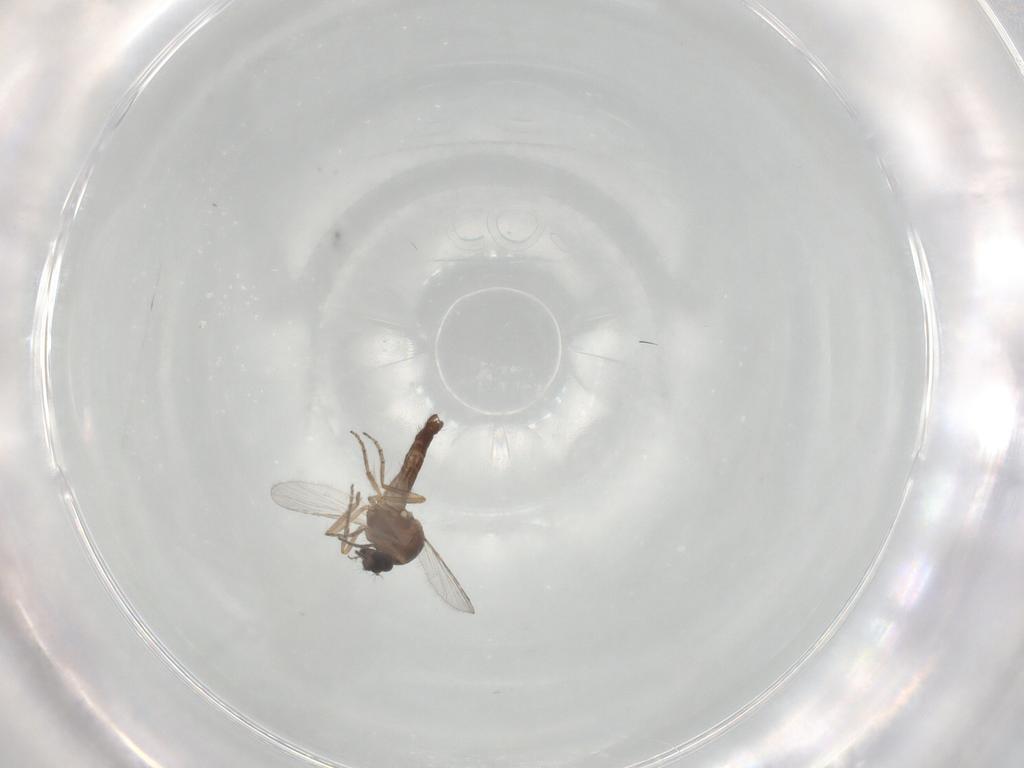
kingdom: Animalia
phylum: Arthropoda
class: Insecta
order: Diptera
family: Ceratopogonidae
